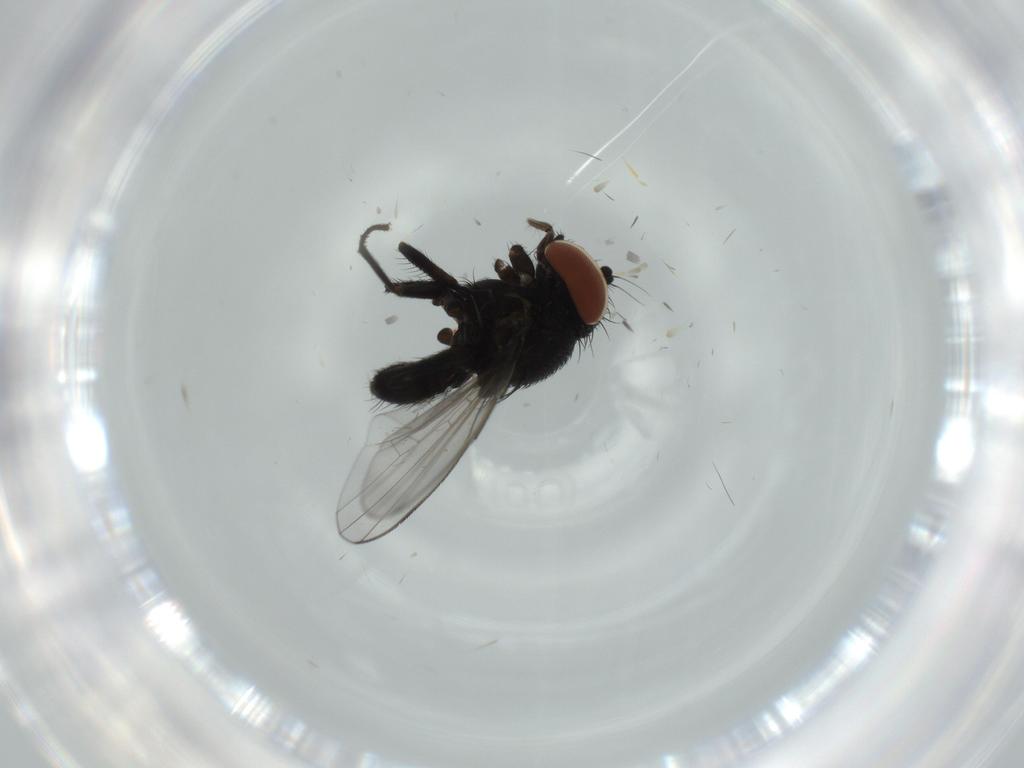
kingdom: Animalia
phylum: Arthropoda
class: Insecta
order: Diptera
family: Milichiidae
